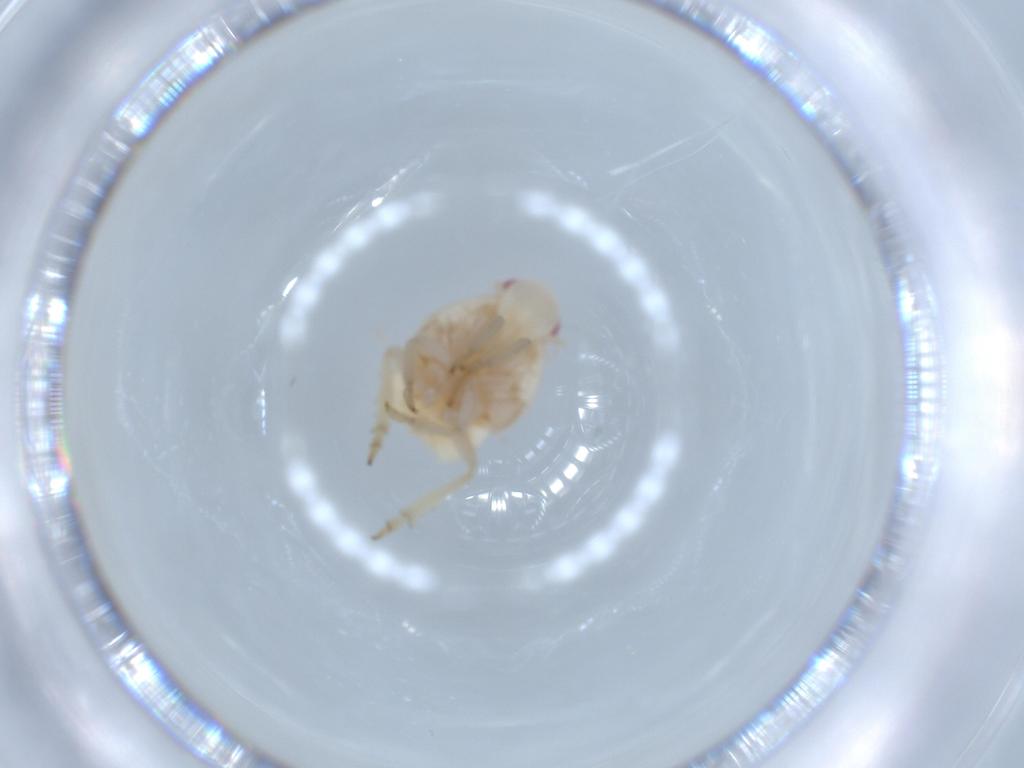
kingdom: Animalia
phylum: Arthropoda
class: Insecta
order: Hemiptera
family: Flatidae
